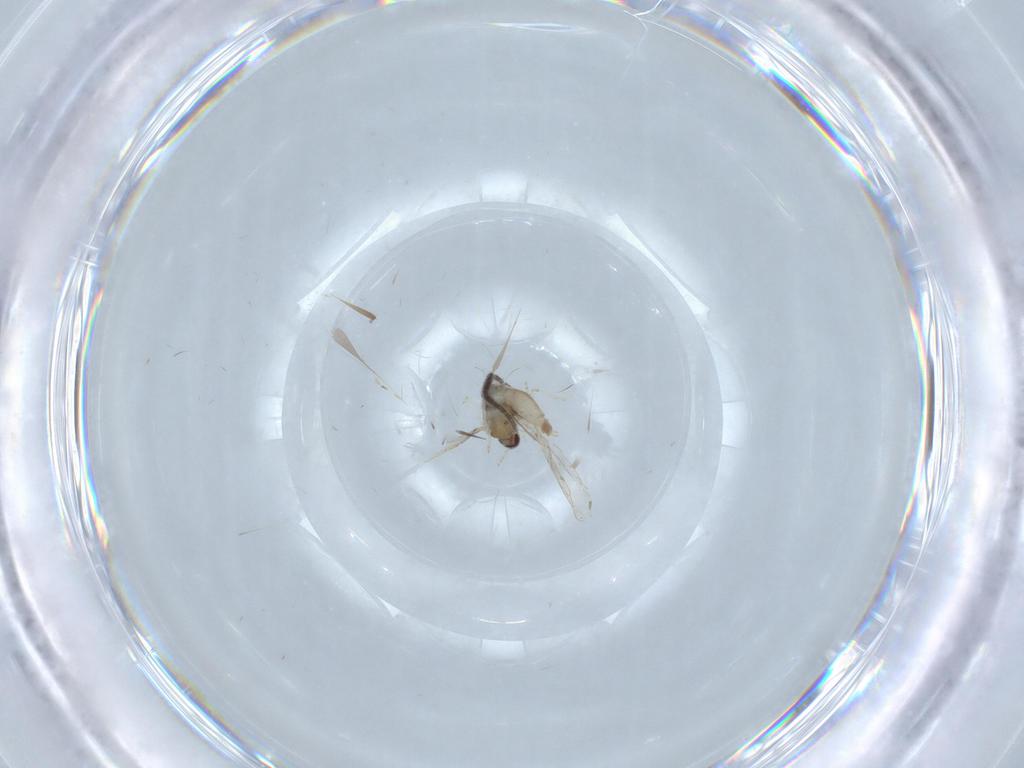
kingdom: Animalia
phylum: Arthropoda
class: Insecta
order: Diptera
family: Cecidomyiidae
